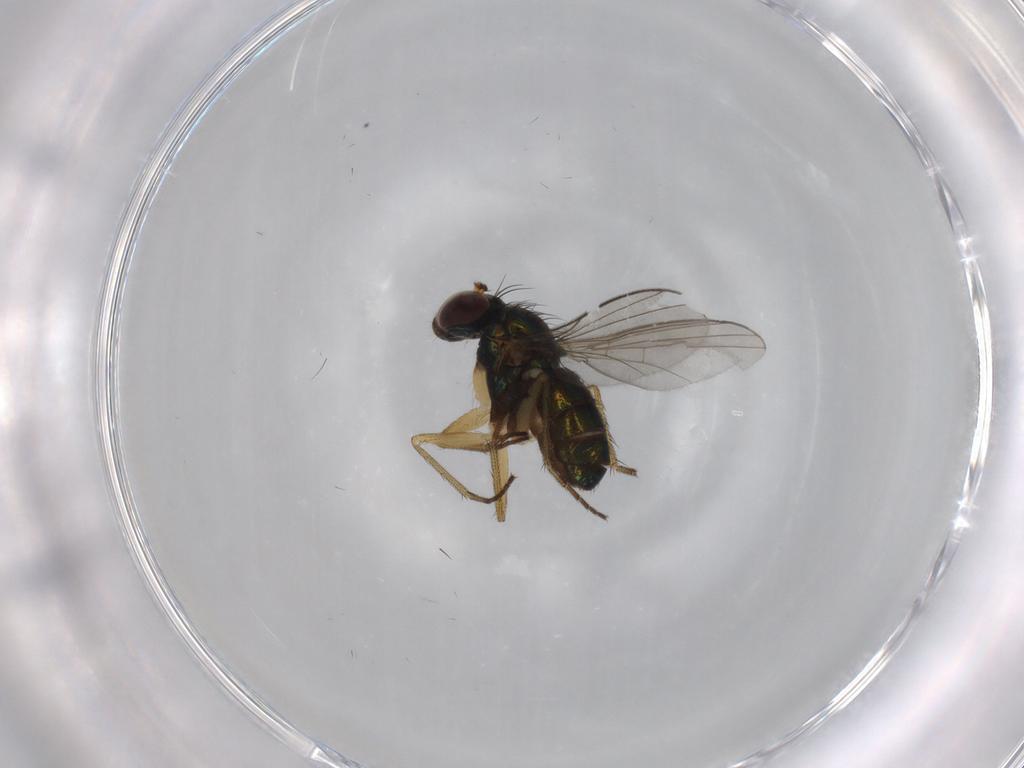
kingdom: Animalia
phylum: Arthropoda
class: Insecta
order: Diptera
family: Dolichopodidae
